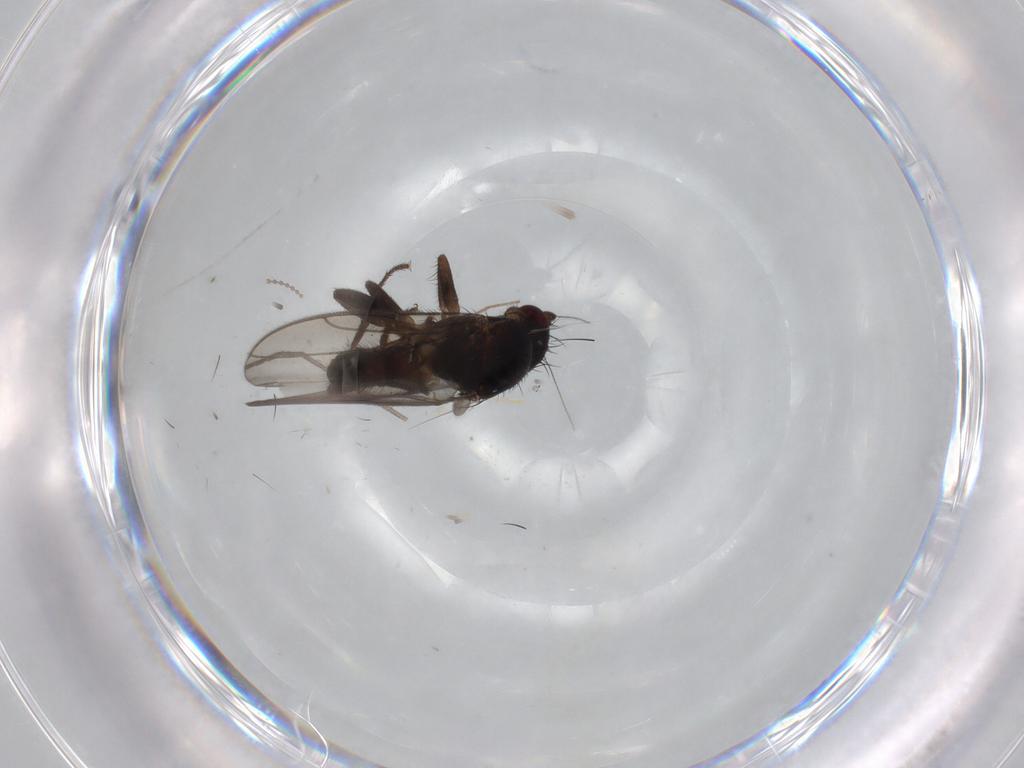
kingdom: Animalia
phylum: Arthropoda
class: Insecta
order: Diptera
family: Sphaeroceridae
